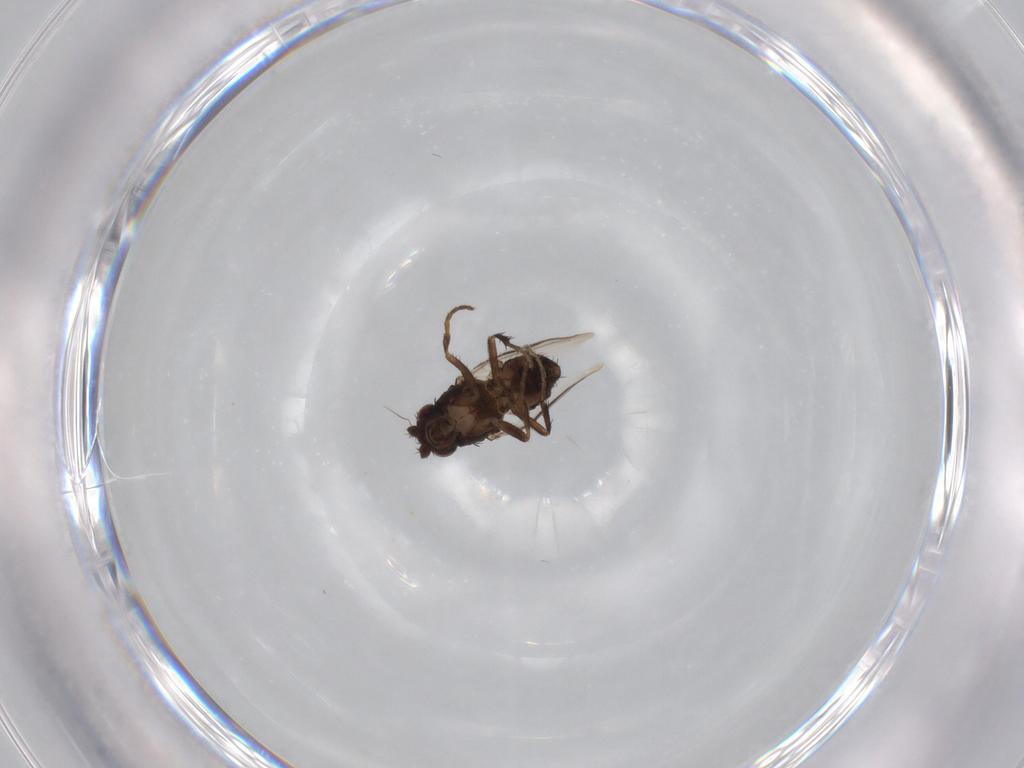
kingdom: Animalia
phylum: Arthropoda
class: Insecta
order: Diptera
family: Sphaeroceridae
